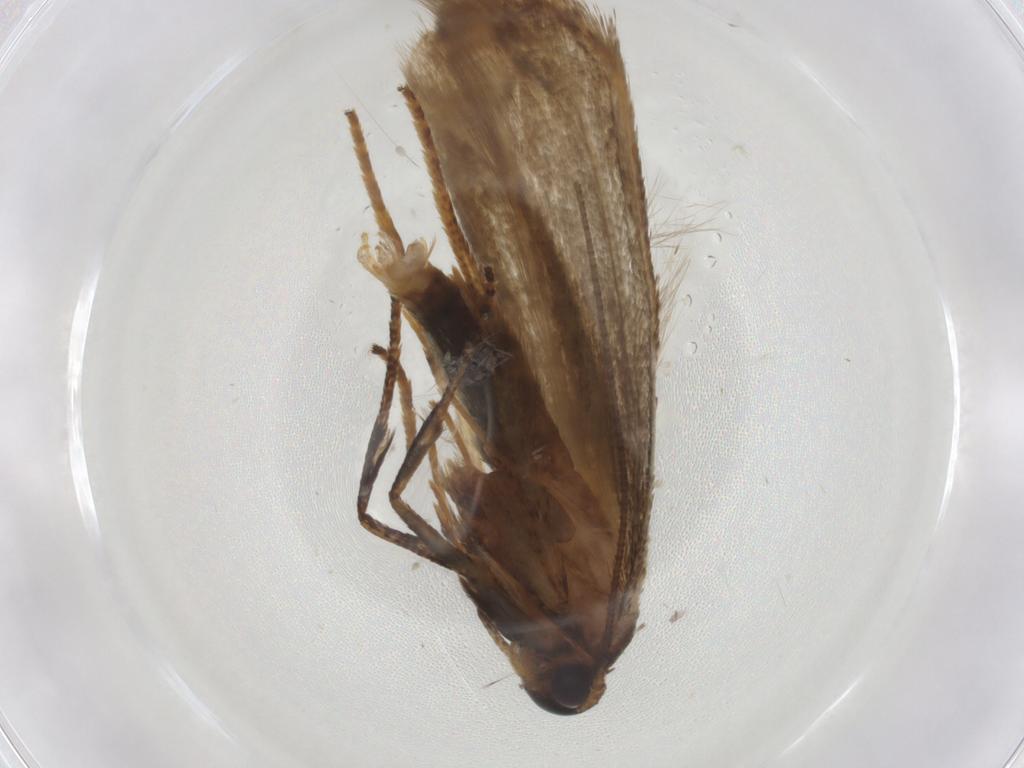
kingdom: Animalia
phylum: Arthropoda
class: Insecta
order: Lepidoptera
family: Blastobasidae
